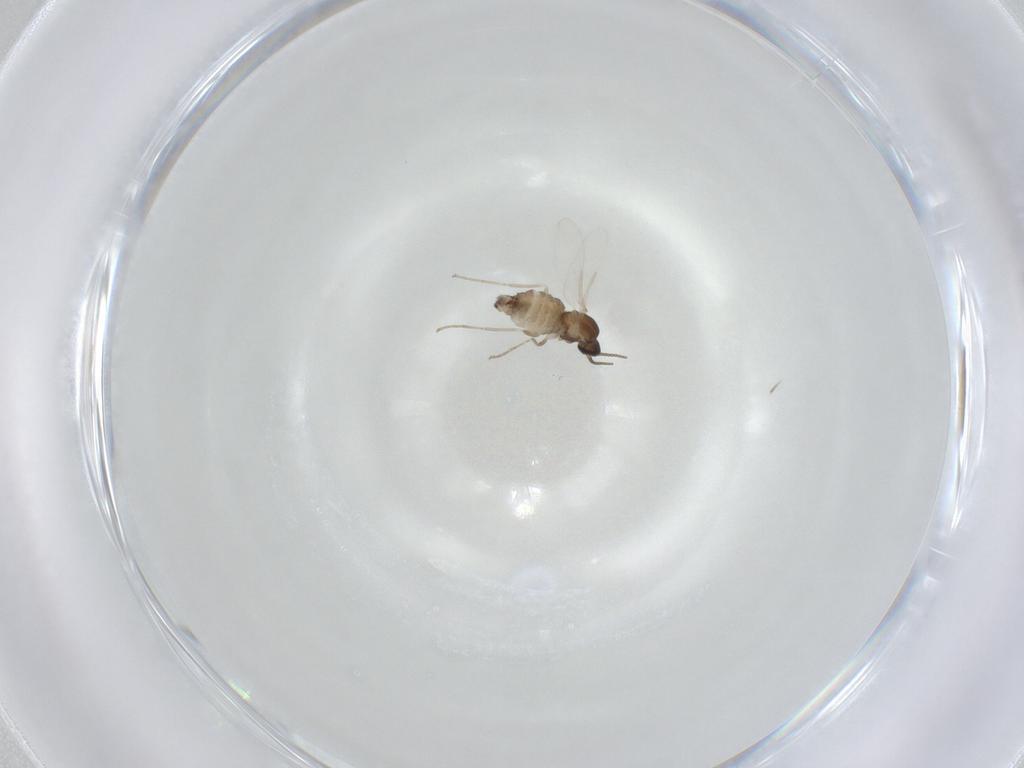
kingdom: Animalia
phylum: Arthropoda
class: Insecta
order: Diptera
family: Cecidomyiidae
